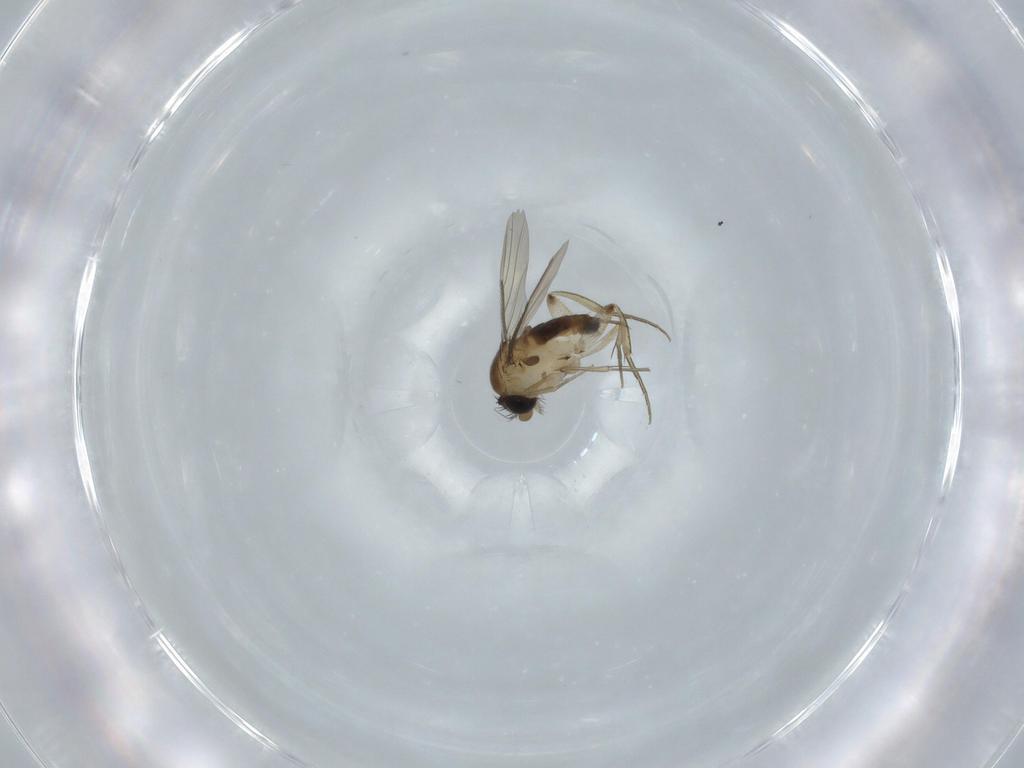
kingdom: Animalia
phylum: Arthropoda
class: Insecta
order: Diptera
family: Phoridae
